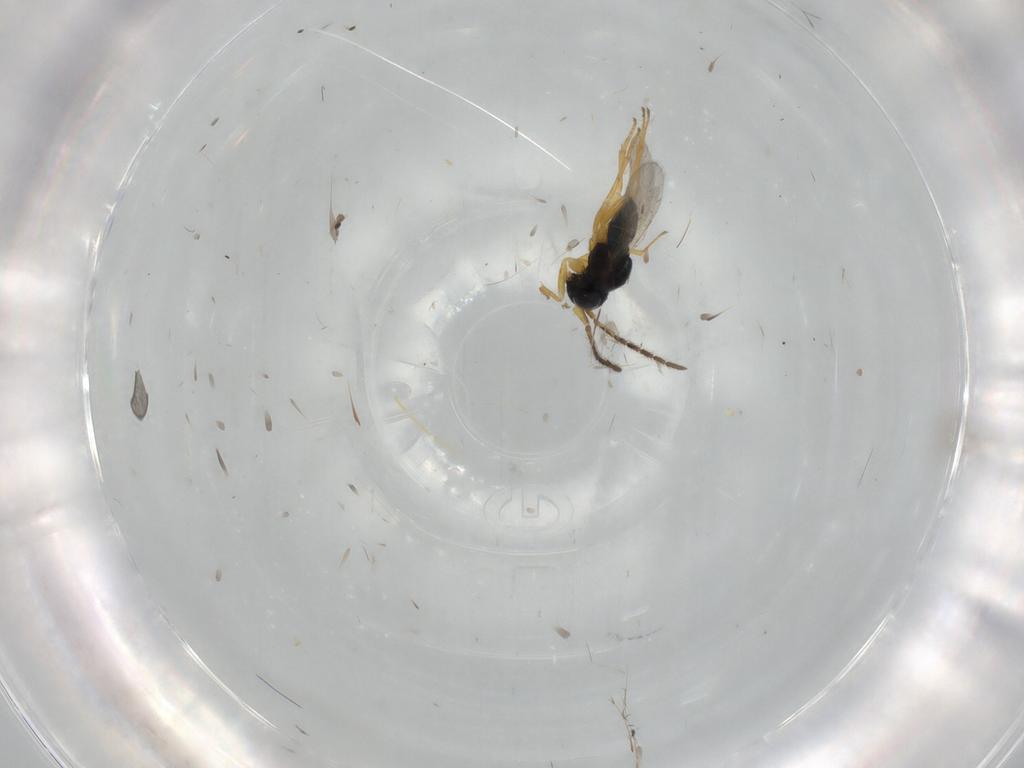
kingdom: Animalia
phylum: Arthropoda
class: Insecta
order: Hymenoptera
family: Pompilidae
